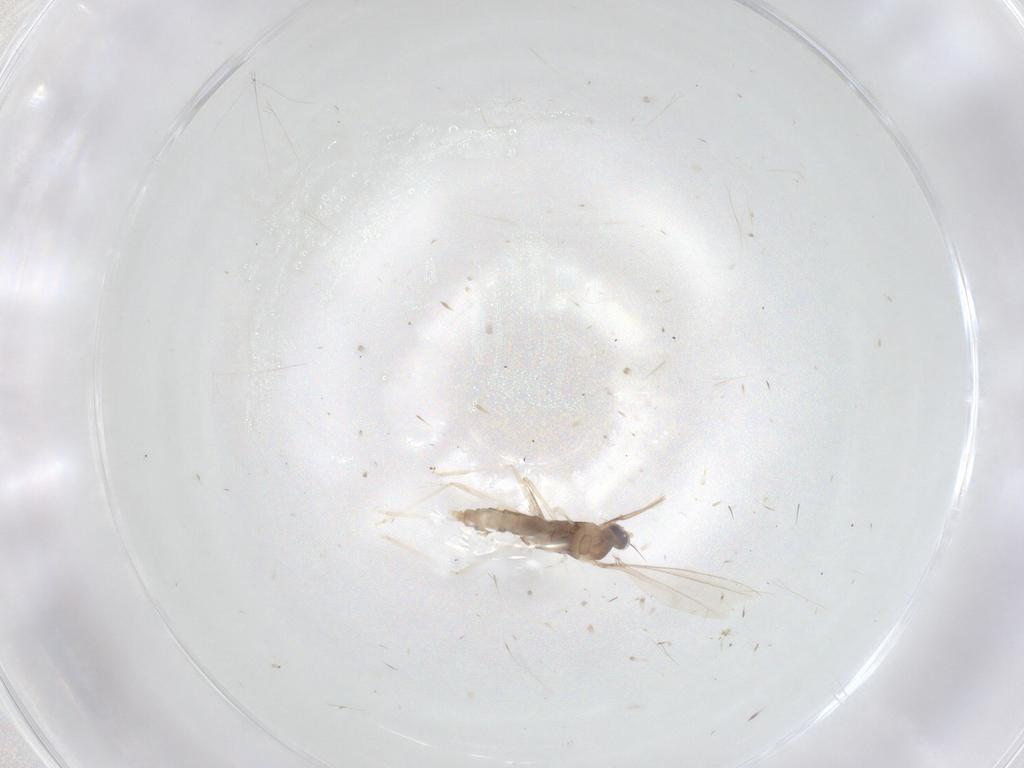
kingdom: Animalia
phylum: Arthropoda
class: Insecta
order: Diptera
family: Cecidomyiidae
